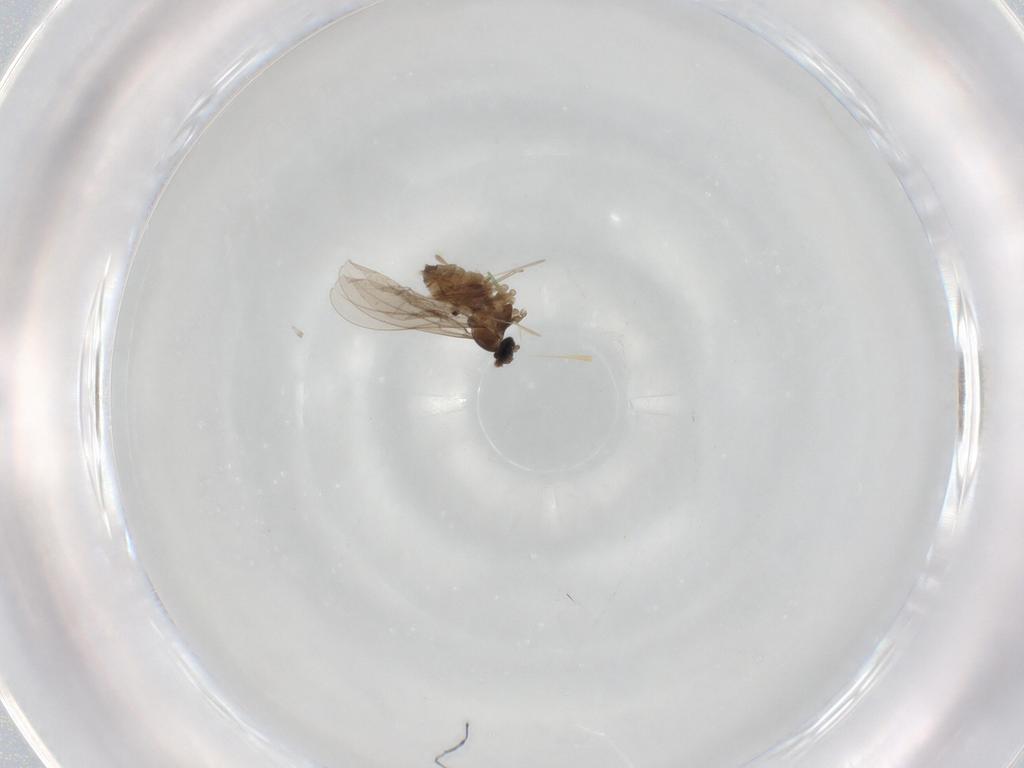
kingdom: Animalia
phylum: Arthropoda
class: Insecta
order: Diptera
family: Cecidomyiidae
